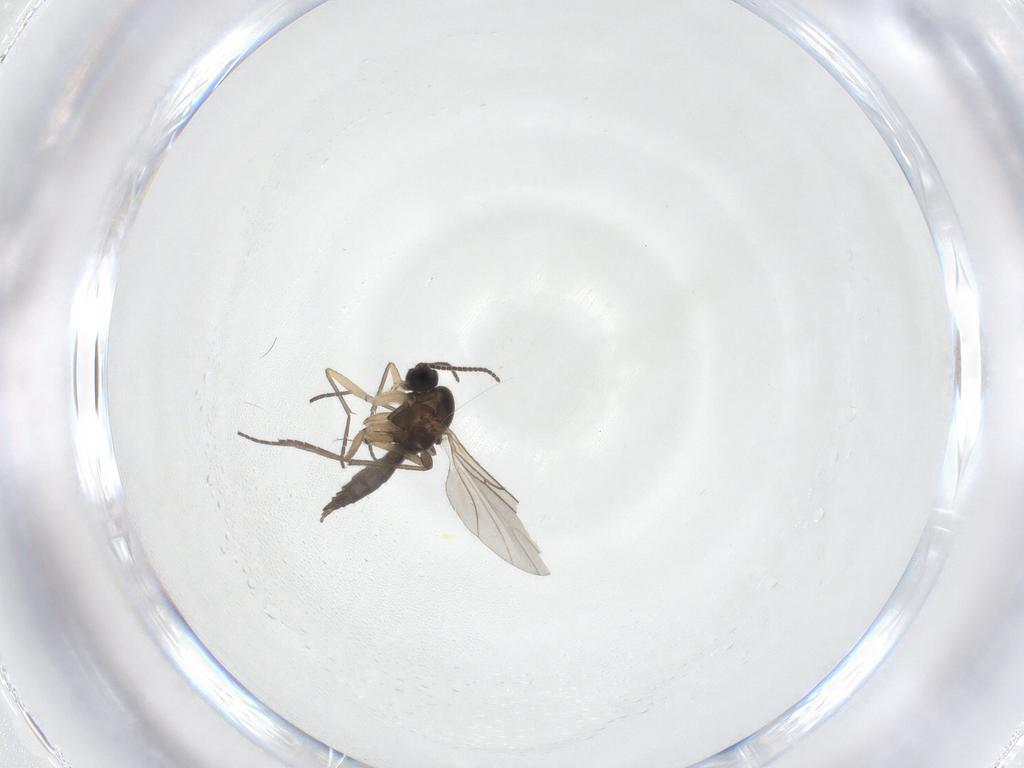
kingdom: Animalia
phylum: Arthropoda
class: Insecta
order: Diptera
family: Sciaridae
